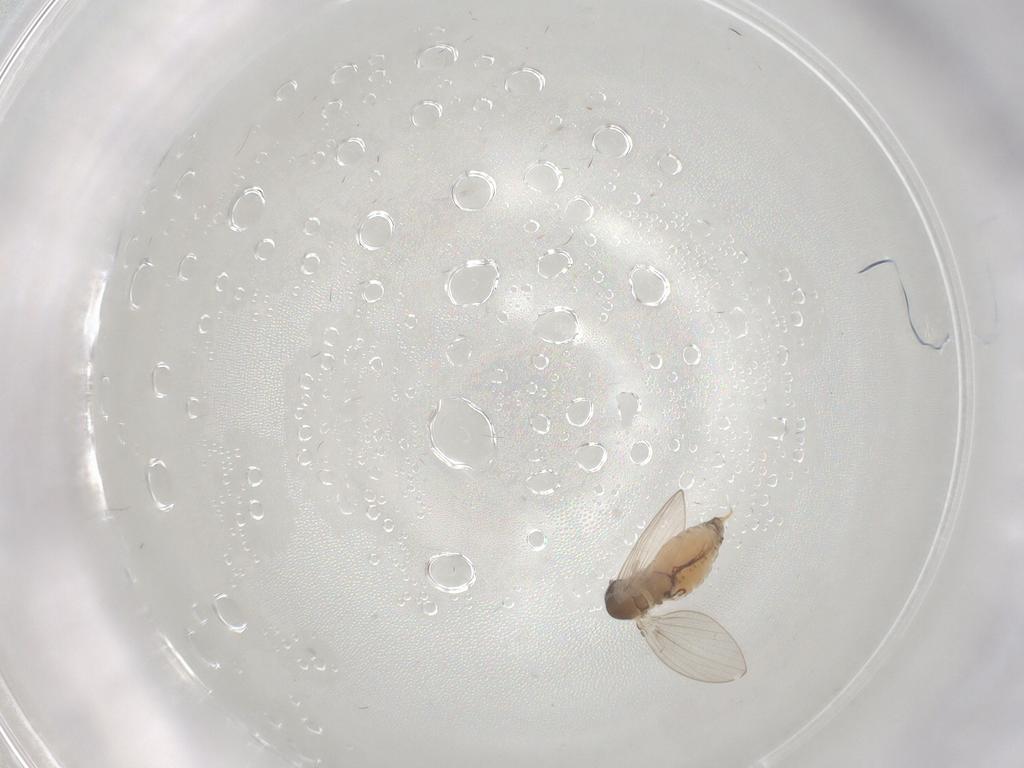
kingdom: Animalia
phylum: Arthropoda
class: Insecta
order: Diptera
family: Psychodidae
